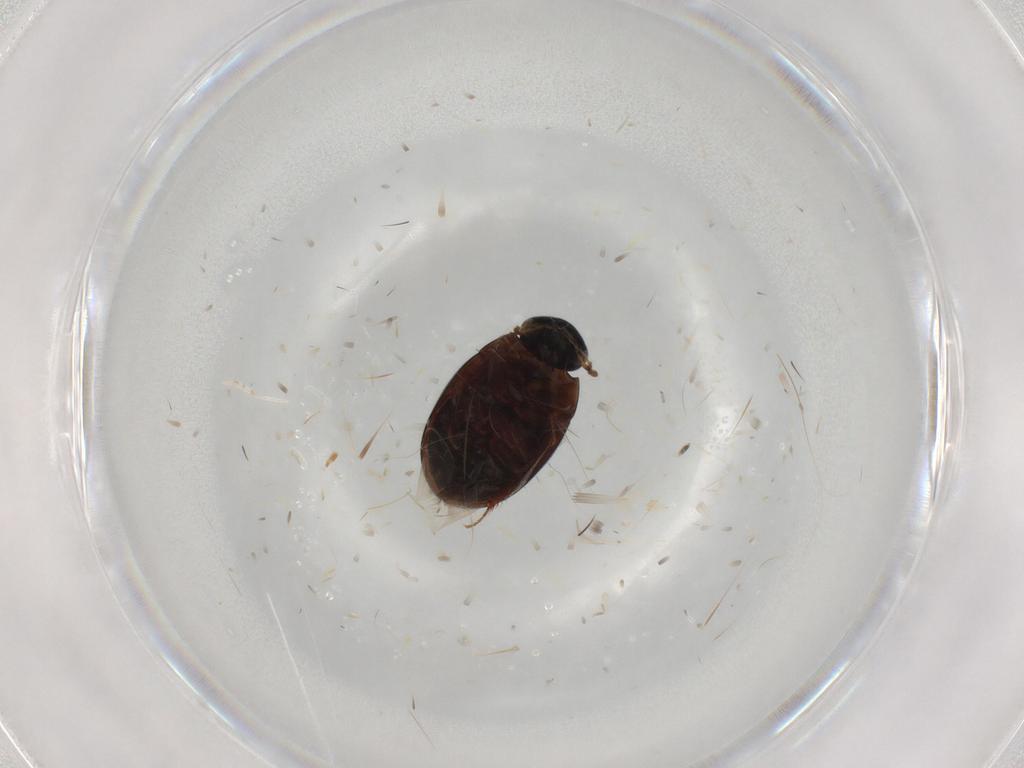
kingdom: Animalia
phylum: Arthropoda
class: Insecta
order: Coleoptera
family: Hydrophilidae
